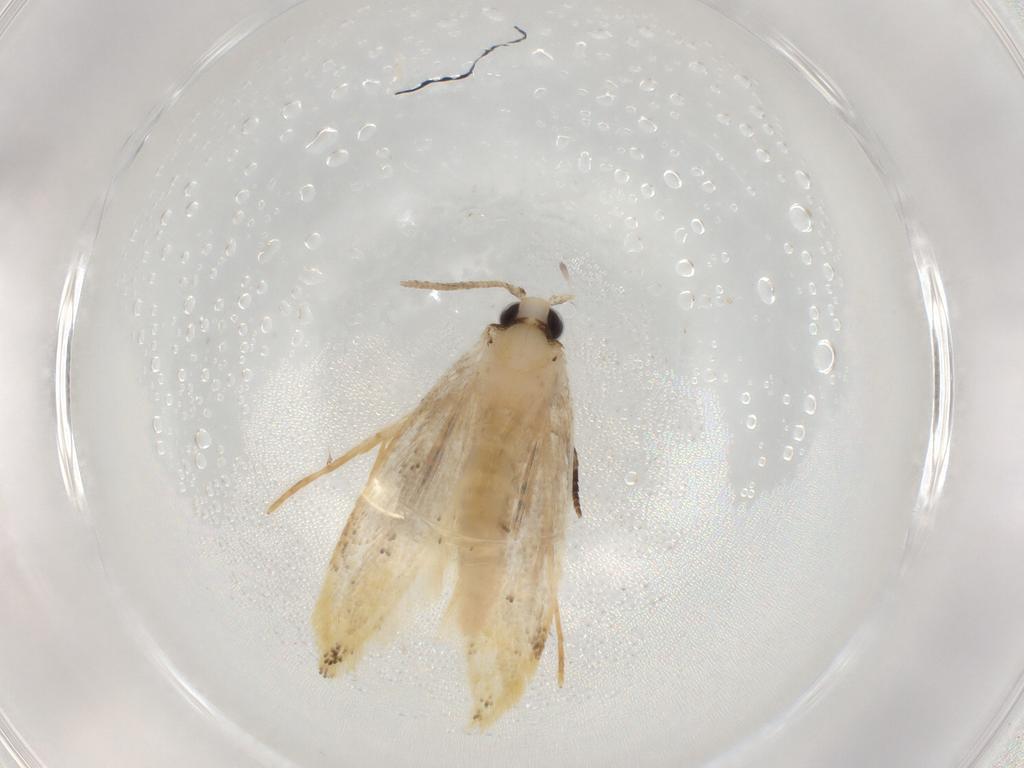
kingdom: Animalia
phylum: Arthropoda
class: Insecta
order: Lepidoptera
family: Tineidae
